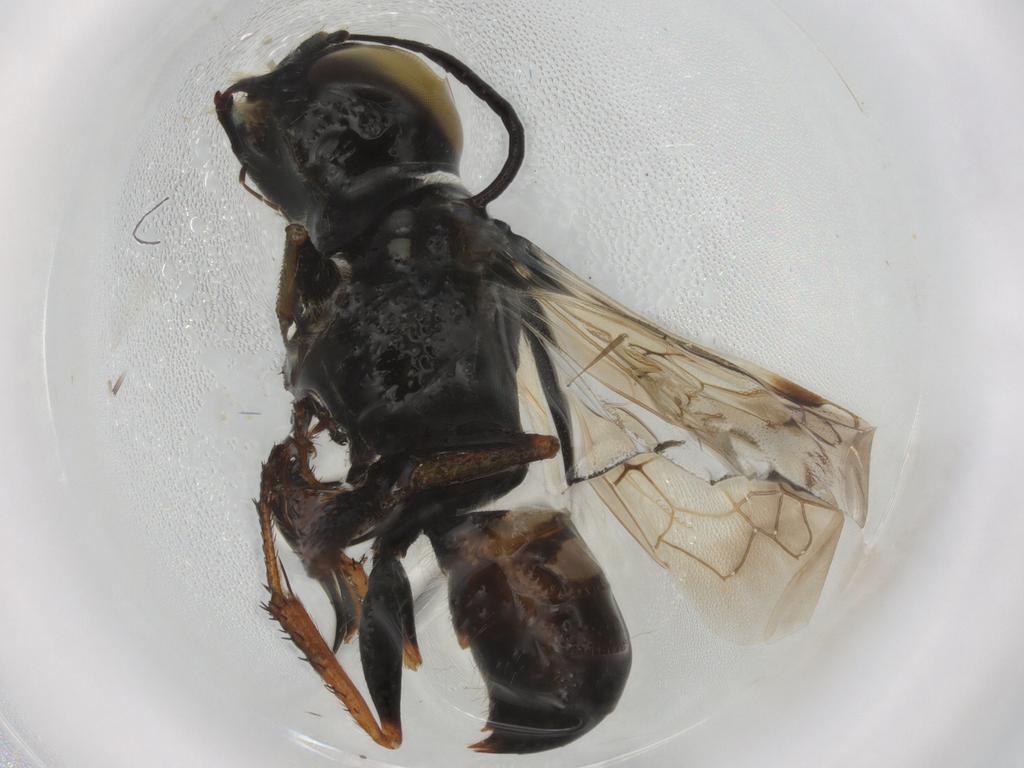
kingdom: Animalia
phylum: Arthropoda
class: Insecta
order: Hymenoptera
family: Crabronidae
